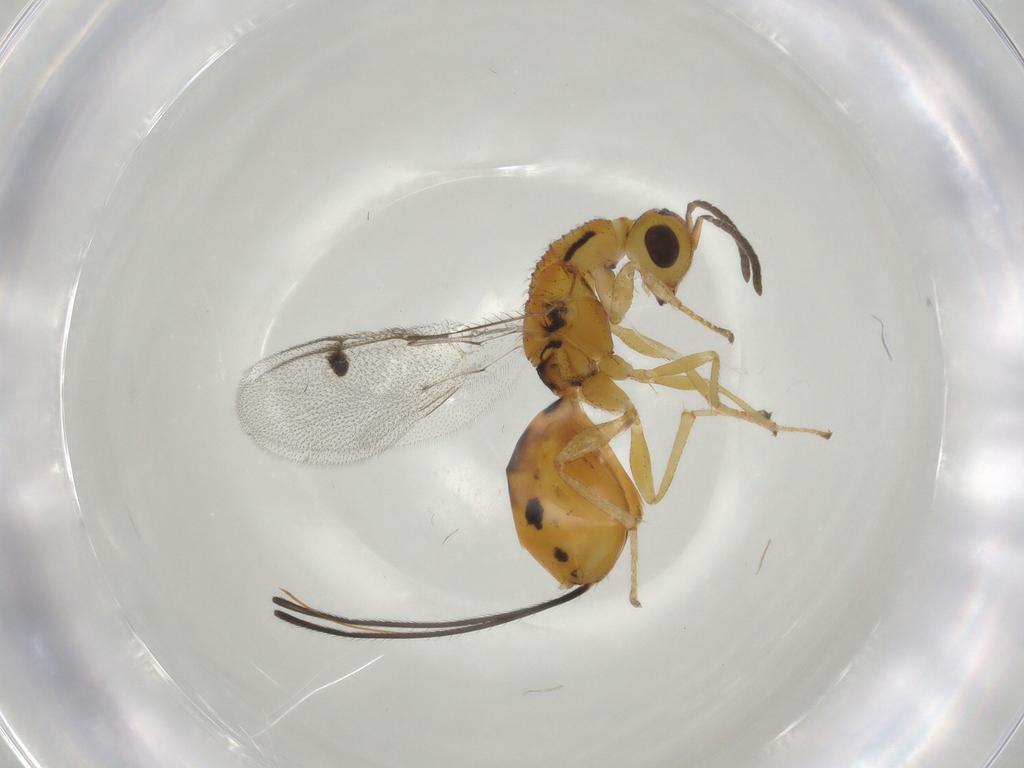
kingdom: Animalia
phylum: Arthropoda
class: Insecta
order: Hymenoptera
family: Megastigmidae
